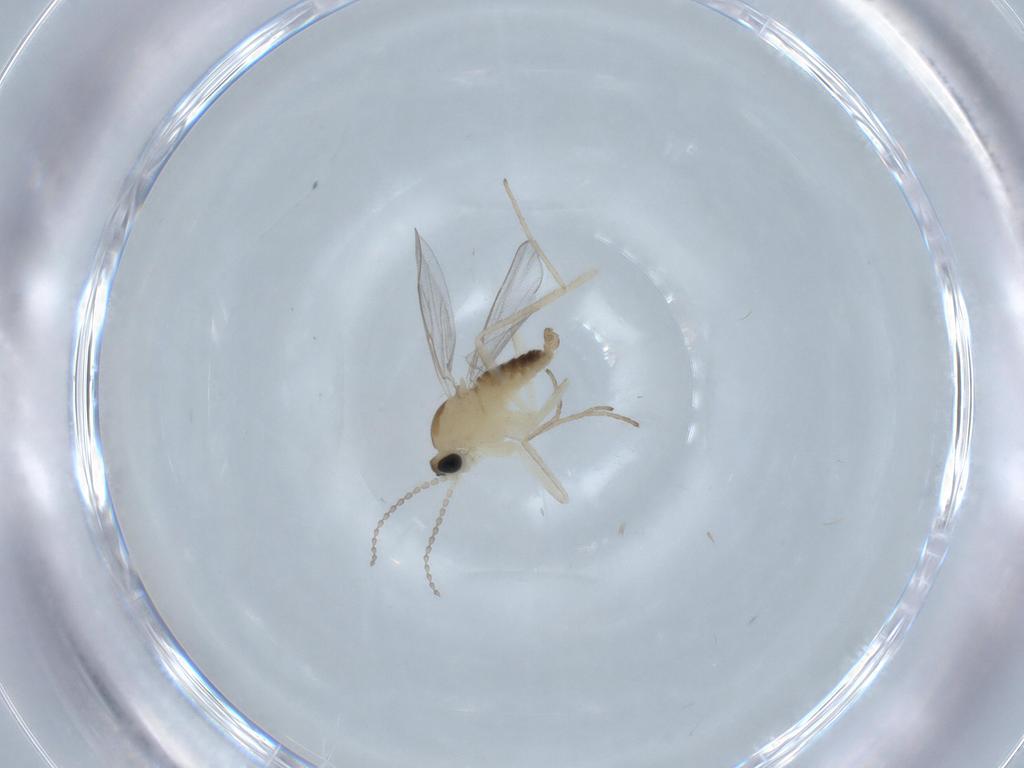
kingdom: Animalia
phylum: Arthropoda
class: Insecta
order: Diptera
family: Cecidomyiidae
